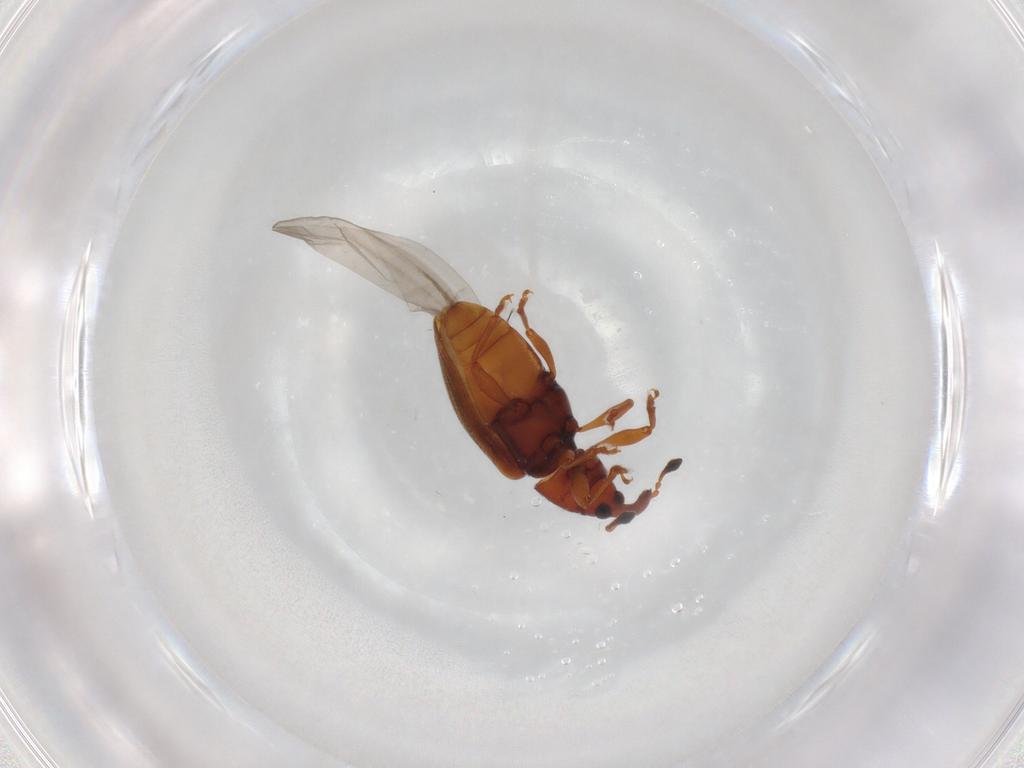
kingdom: Animalia
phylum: Arthropoda
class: Insecta
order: Coleoptera
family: Curculionidae
